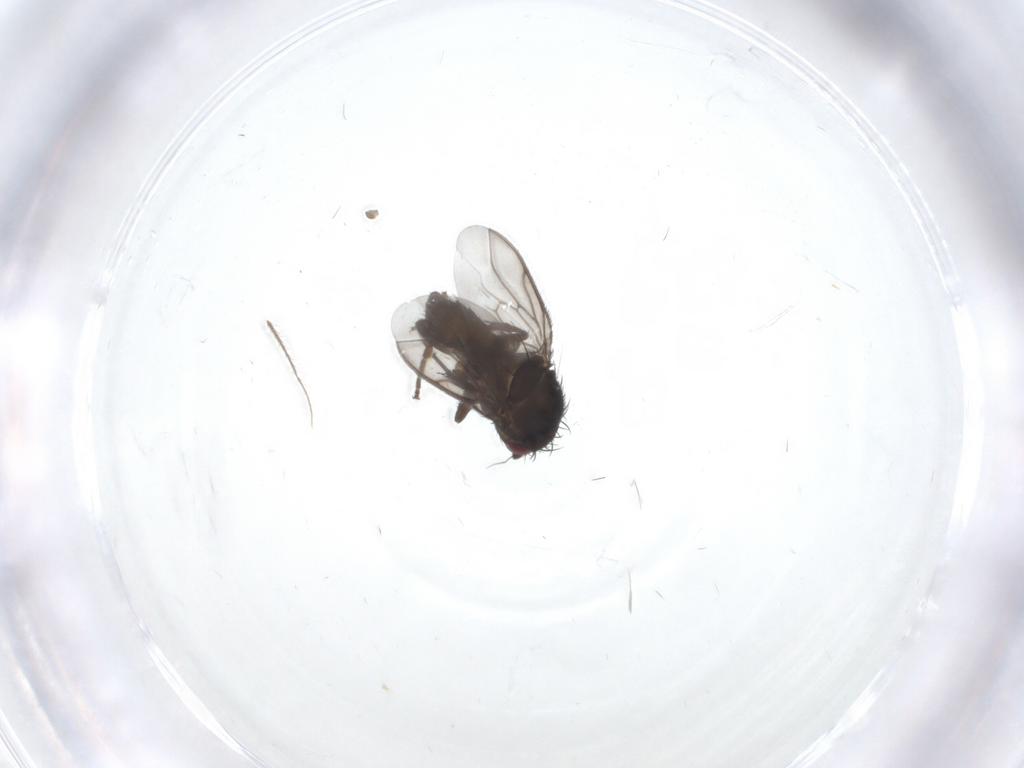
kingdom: Animalia
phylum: Arthropoda
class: Insecta
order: Diptera
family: Sphaeroceridae
